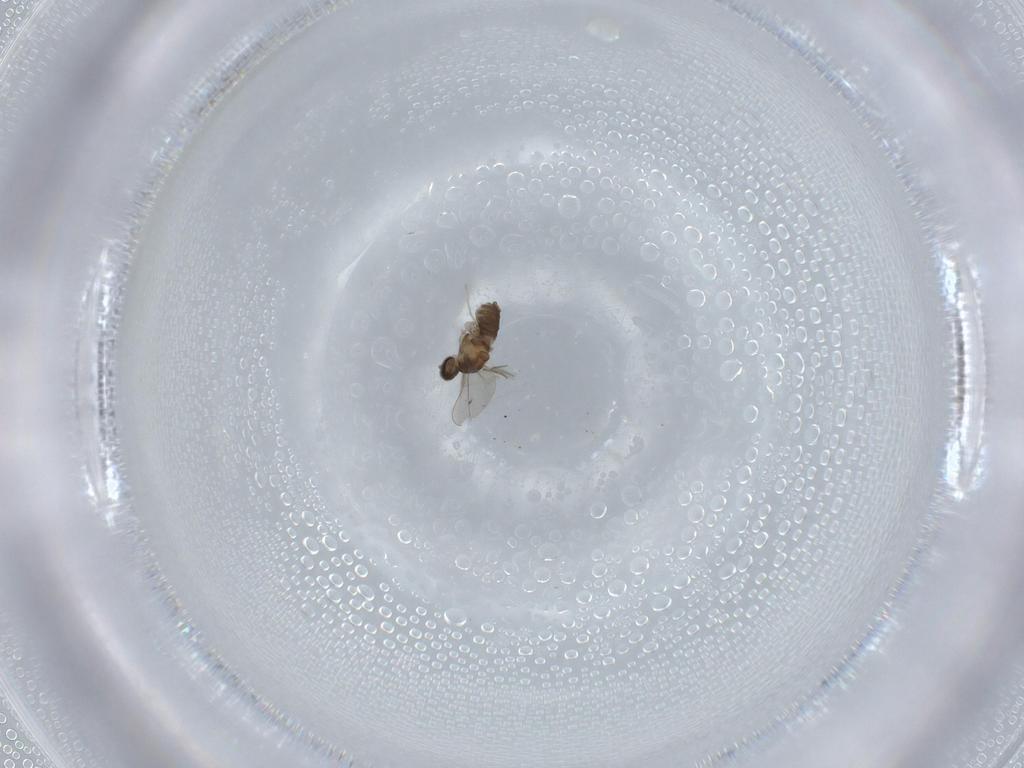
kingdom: Animalia
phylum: Arthropoda
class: Insecta
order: Diptera
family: Cecidomyiidae
